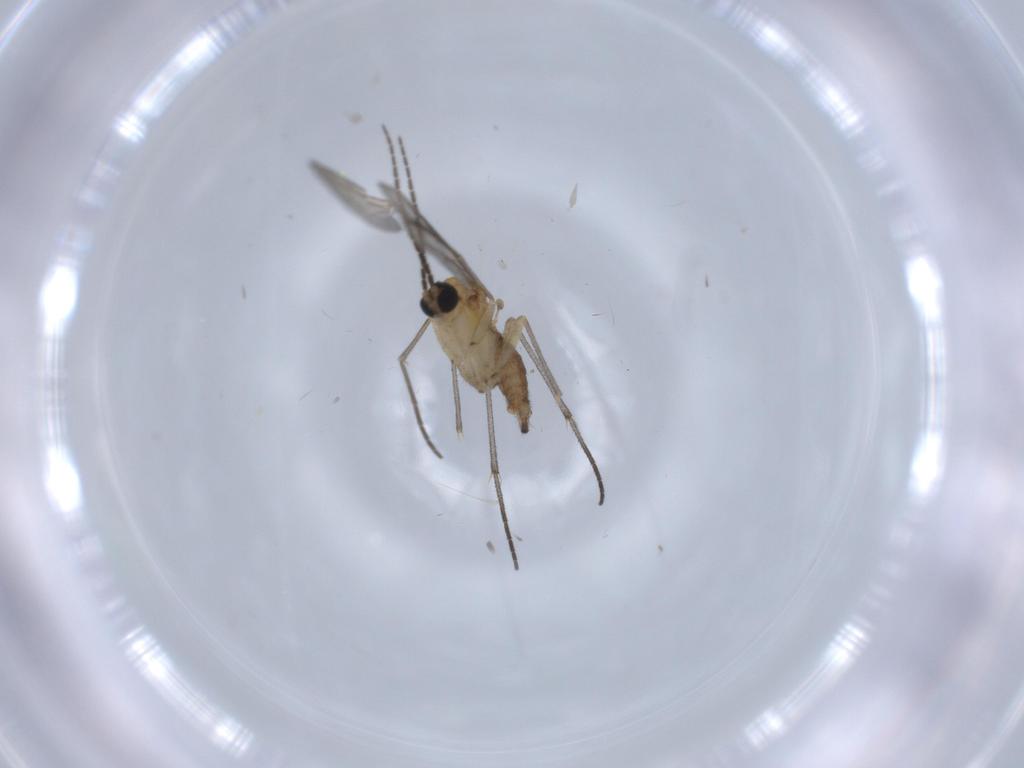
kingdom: Animalia
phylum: Arthropoda
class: Insecta
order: Diptera
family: Sciaridae
